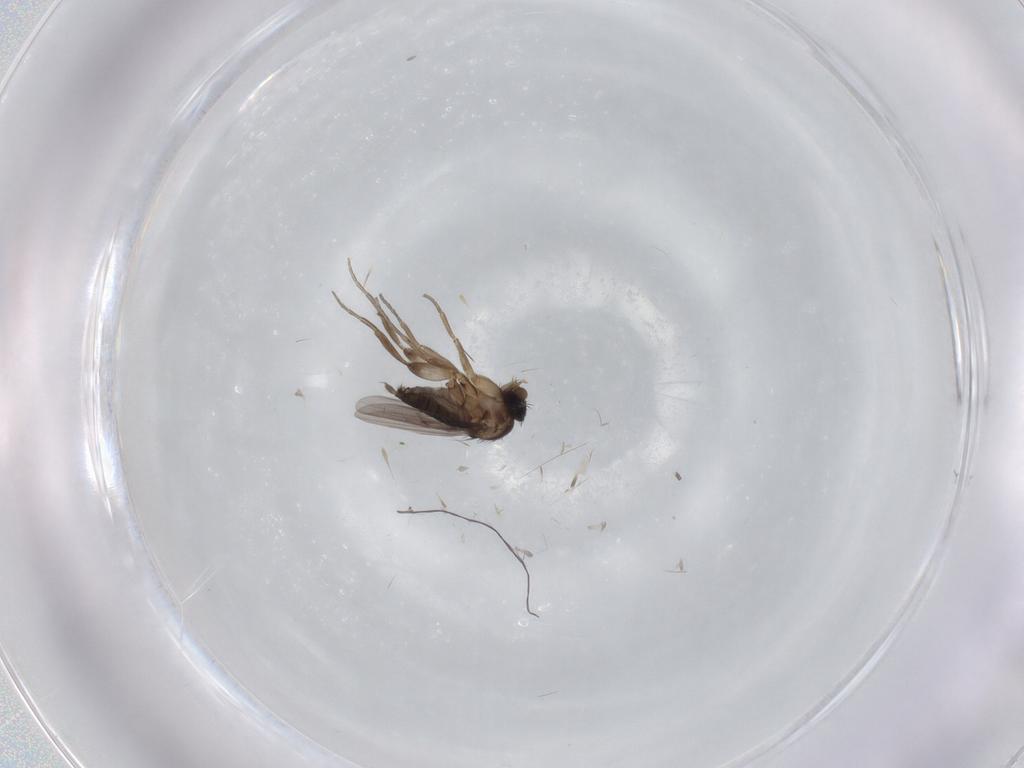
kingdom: Animalia
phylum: Arthropoda
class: Insecta
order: Diptera
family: Phoridae
